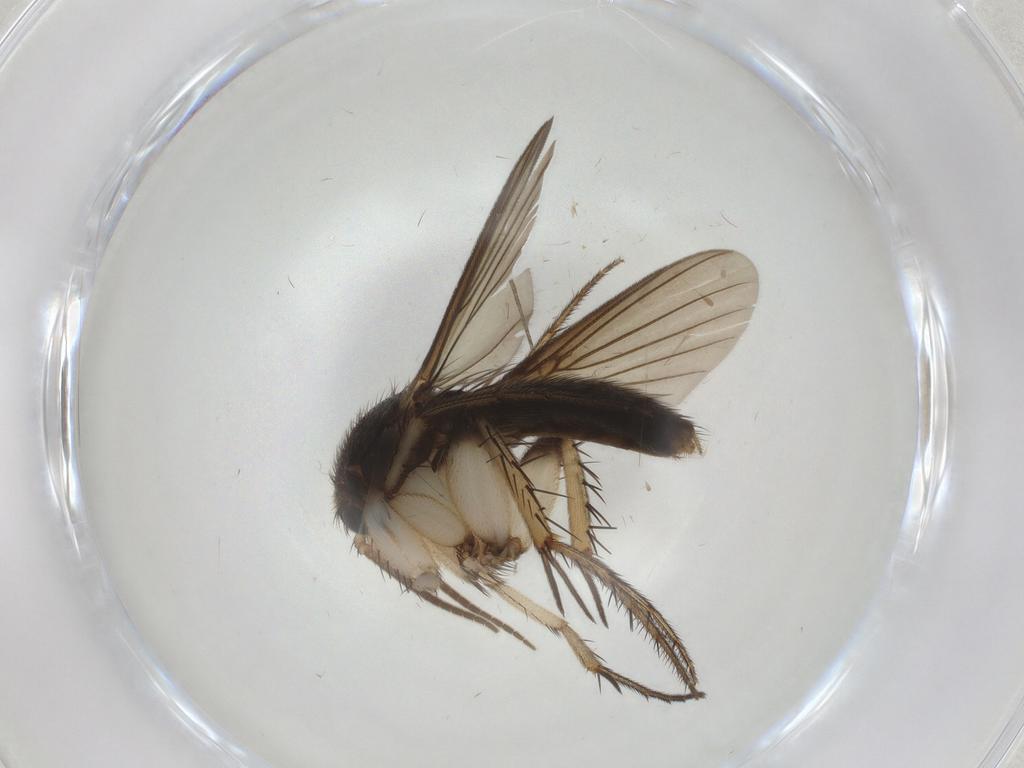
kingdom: Animalia
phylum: Arthropoda
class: Insecta
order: Diptera
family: Mycetophilidae
